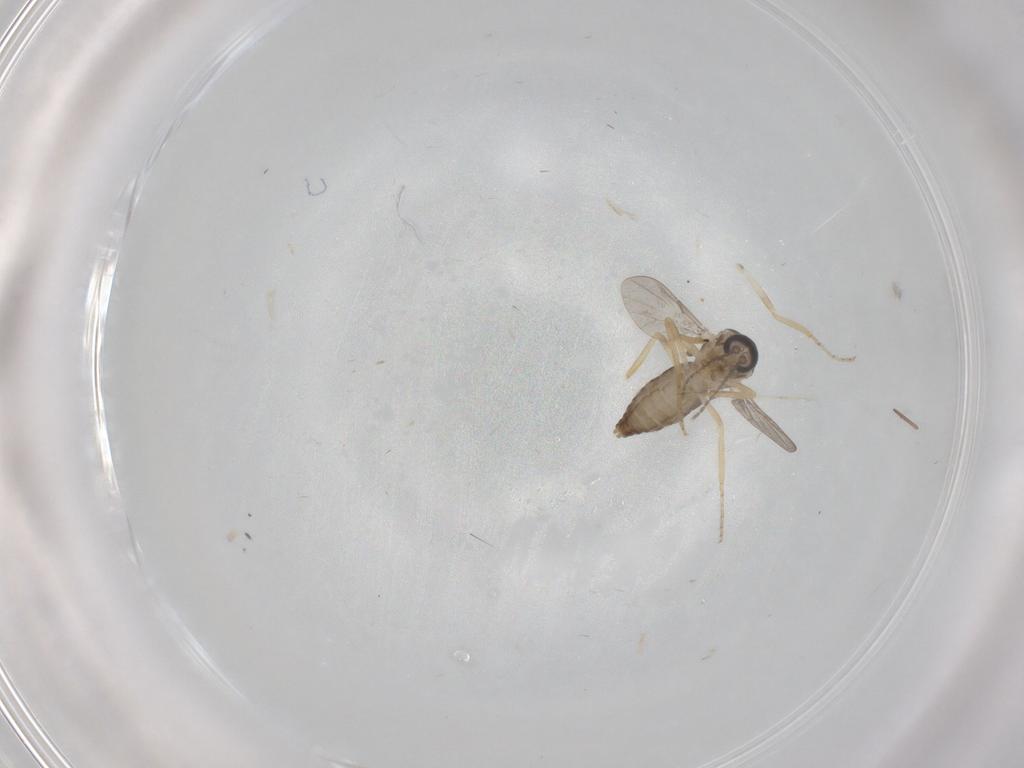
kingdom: Animalia
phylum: Arthropoda
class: Insecta
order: Diptera
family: Ceratopogonidae
